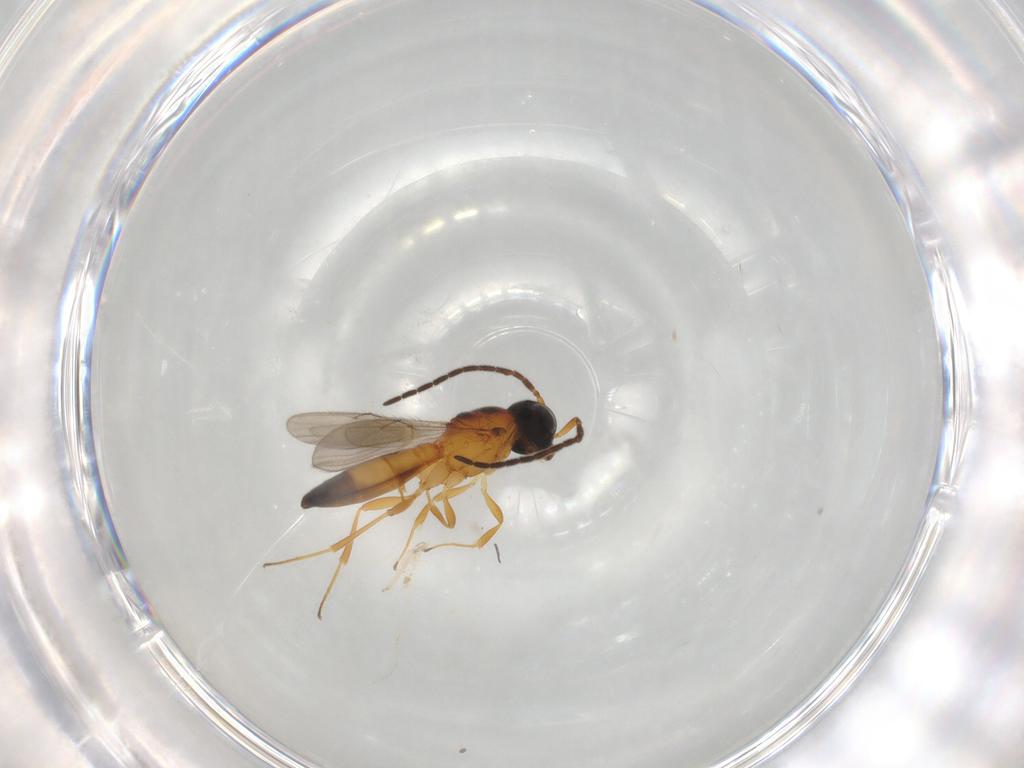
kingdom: Animalia
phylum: Arthropoda
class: Insecta
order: Hymenoptera
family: Scelionidae
